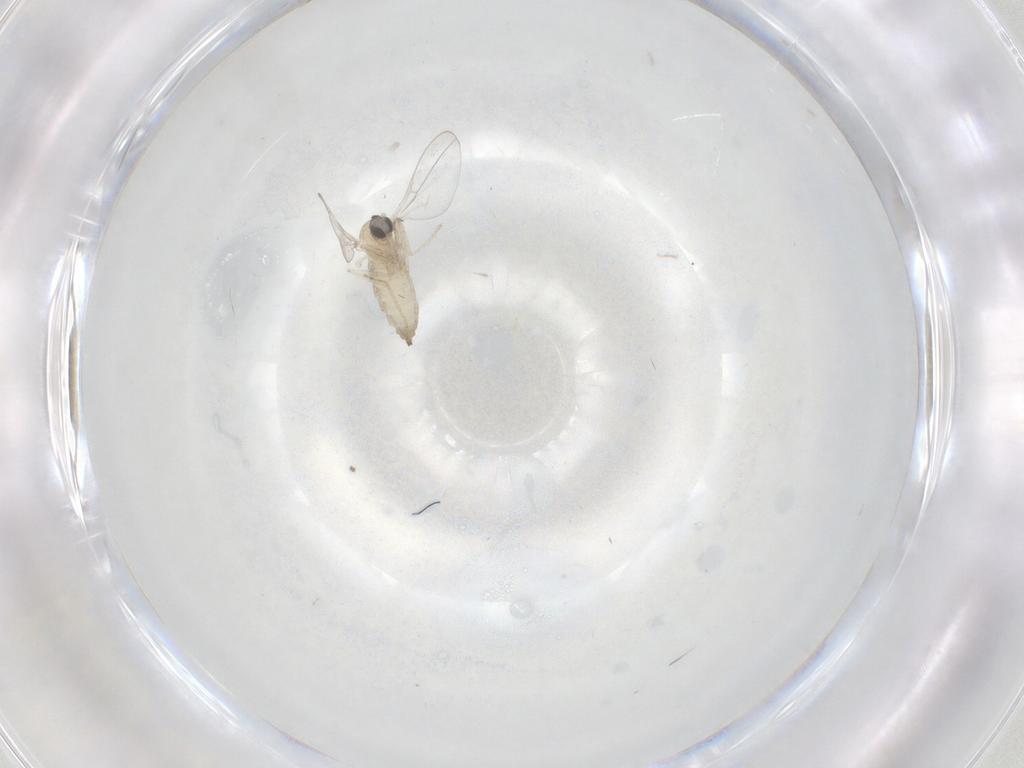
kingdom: Animalia
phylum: Arthropoda
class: Insecta
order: Diptera
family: Cecidomyiidae
